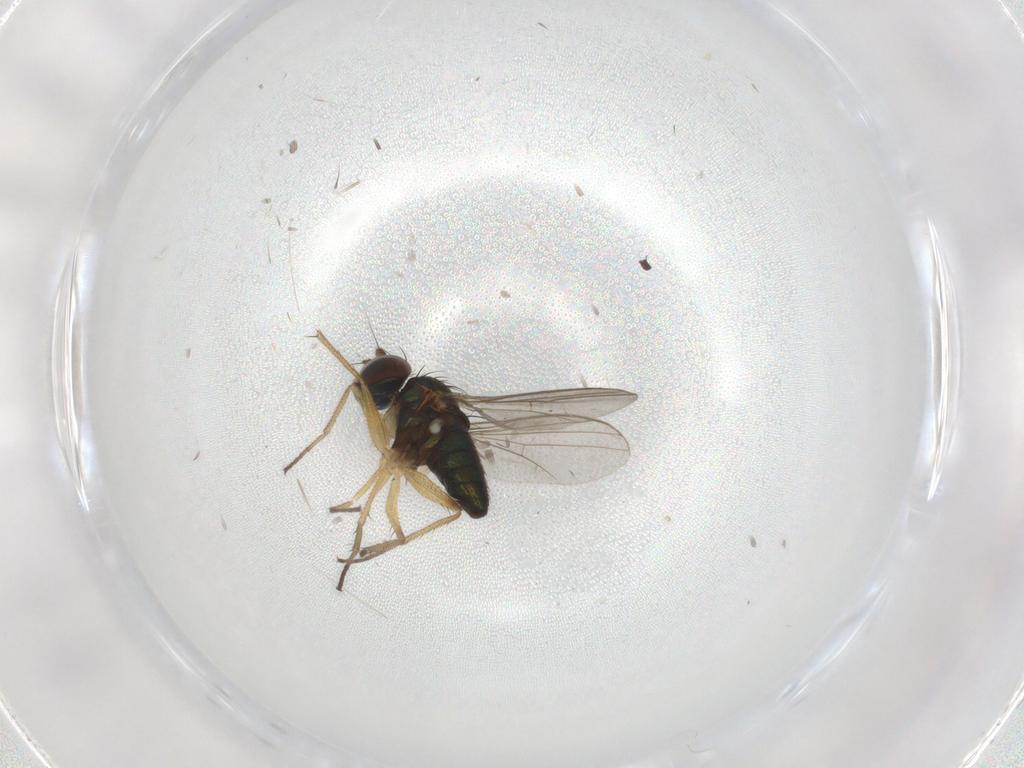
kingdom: Animalia
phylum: Arthropoda
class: Insecta
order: Diptera
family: Dolichopodidae
